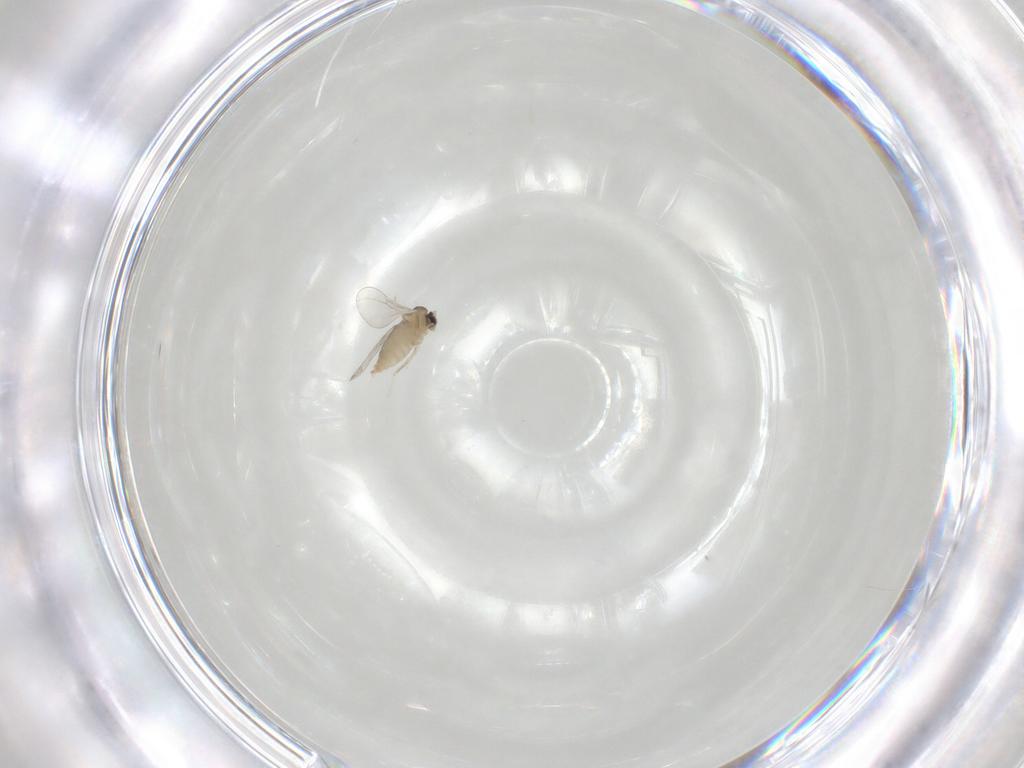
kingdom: Animalia
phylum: Arthropoda
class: Insecta
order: Diptera
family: Cecidomyiidae
